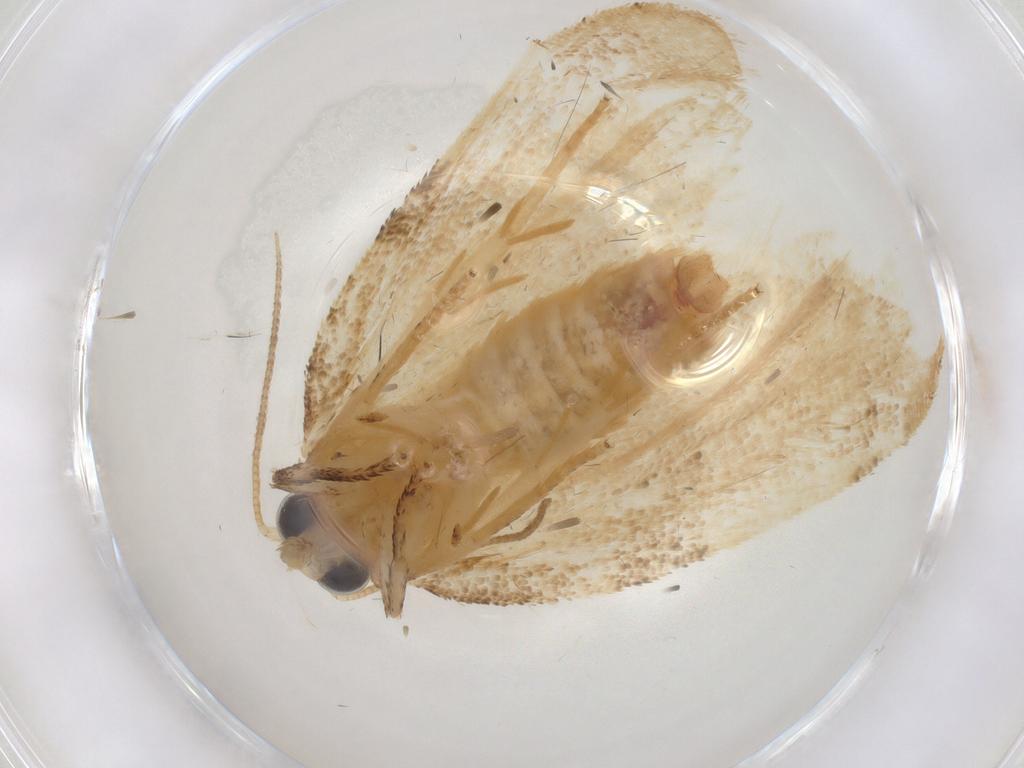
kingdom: Animalia
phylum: Arthropoda
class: Insecta
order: Lepidoptera
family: Tortricidae
